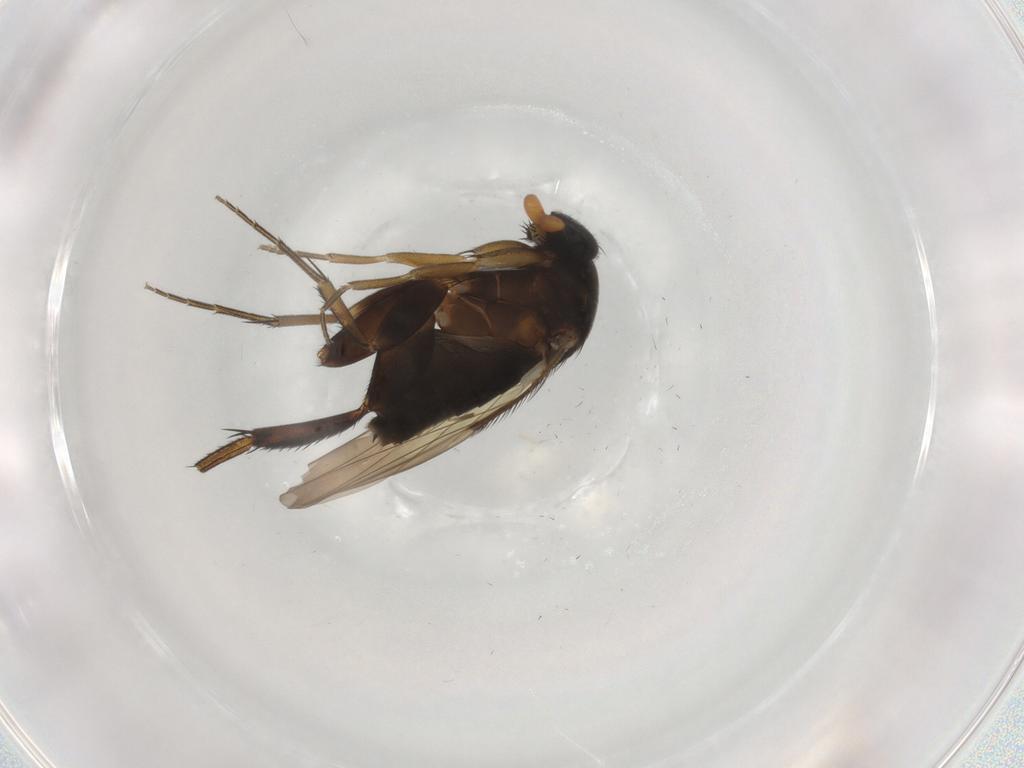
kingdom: Animalia
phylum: Arthropoda
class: Insecta
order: Diptera
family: Phoridae
